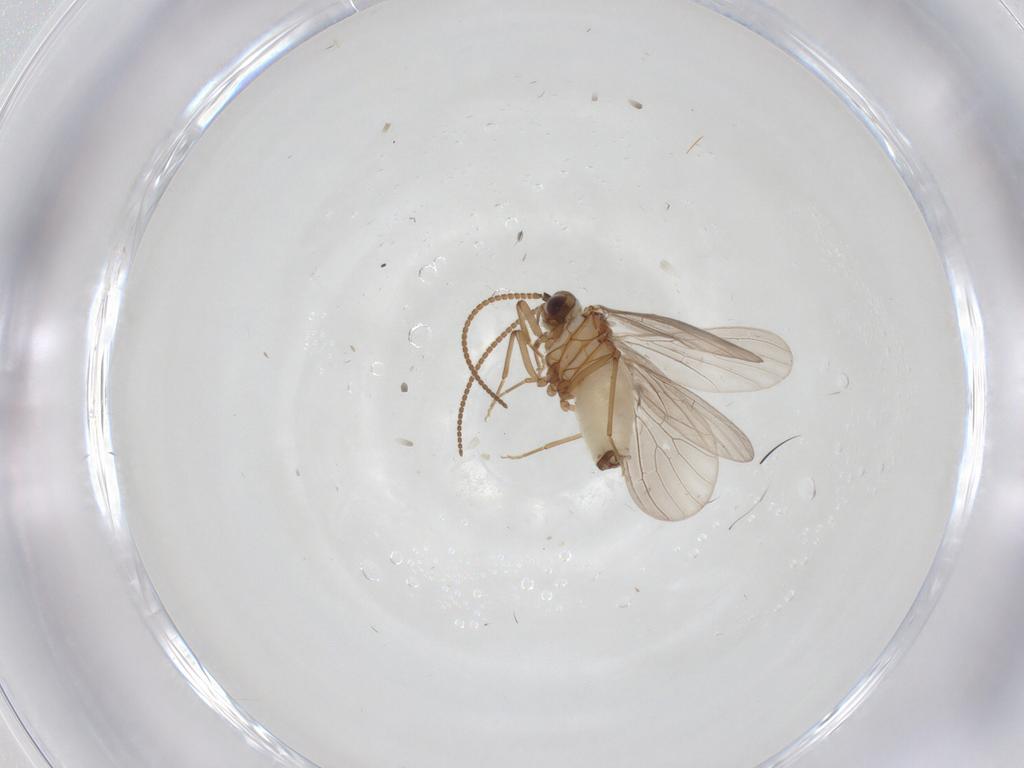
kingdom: Animalia
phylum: Arthropoda
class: Insecta
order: Neuroptera
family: Coniopterygidae
